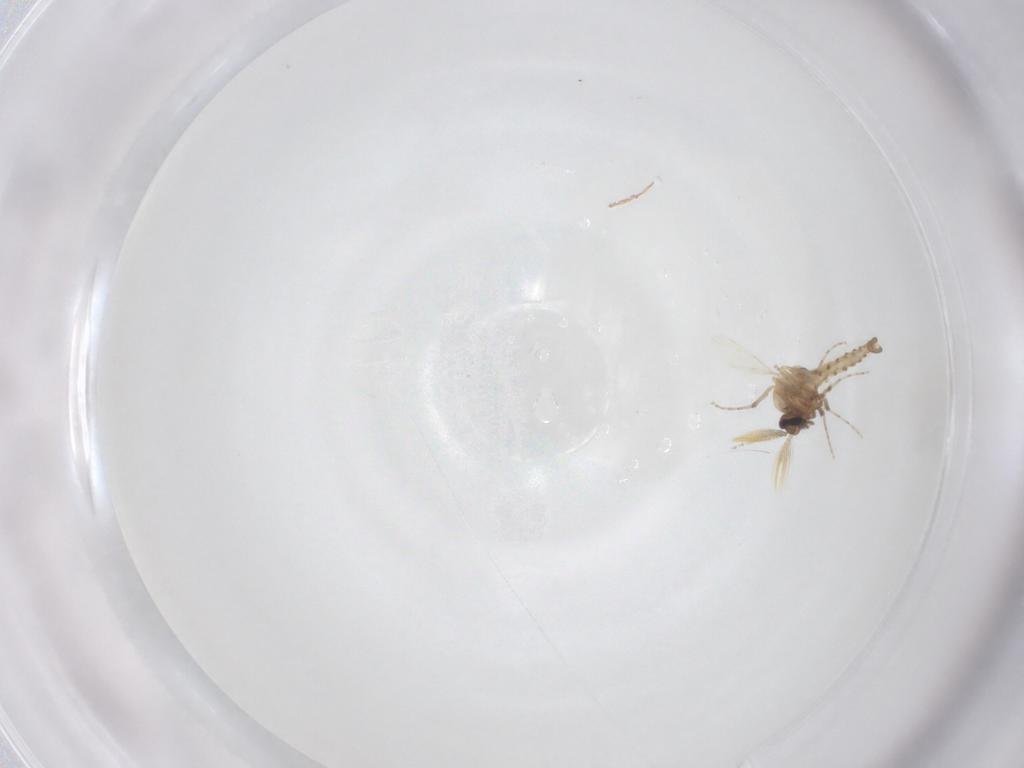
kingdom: Animalia
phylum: Arthropoda
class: Insecta
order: Diptera
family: Ceratopogonidae
